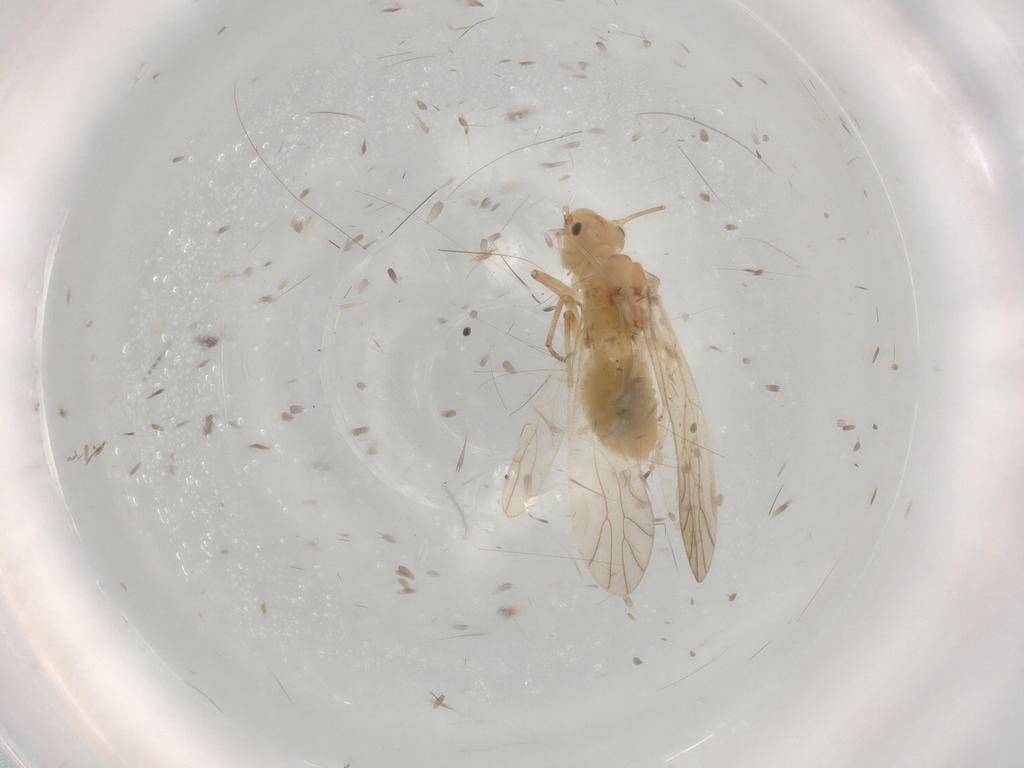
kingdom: Animalia
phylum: Arthropoda
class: Insecta
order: Psocodea
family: Caeciliusidae
